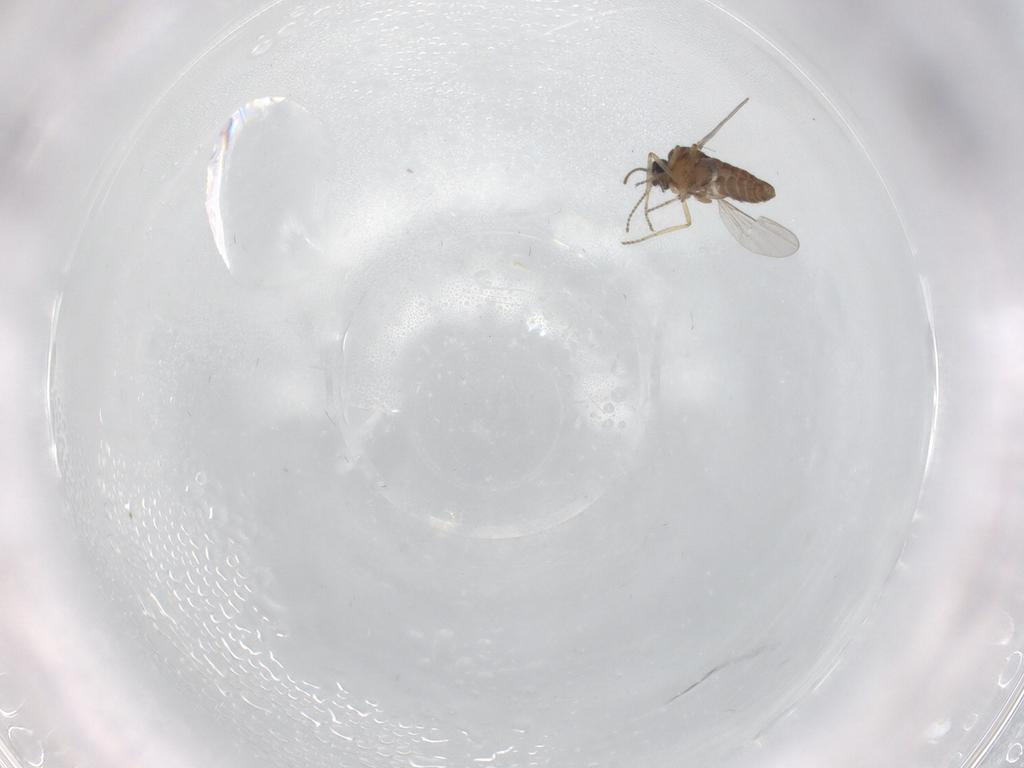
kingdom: Animalia
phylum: Arthropoda
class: Insecta
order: Diptera
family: Ceratopogonidae
